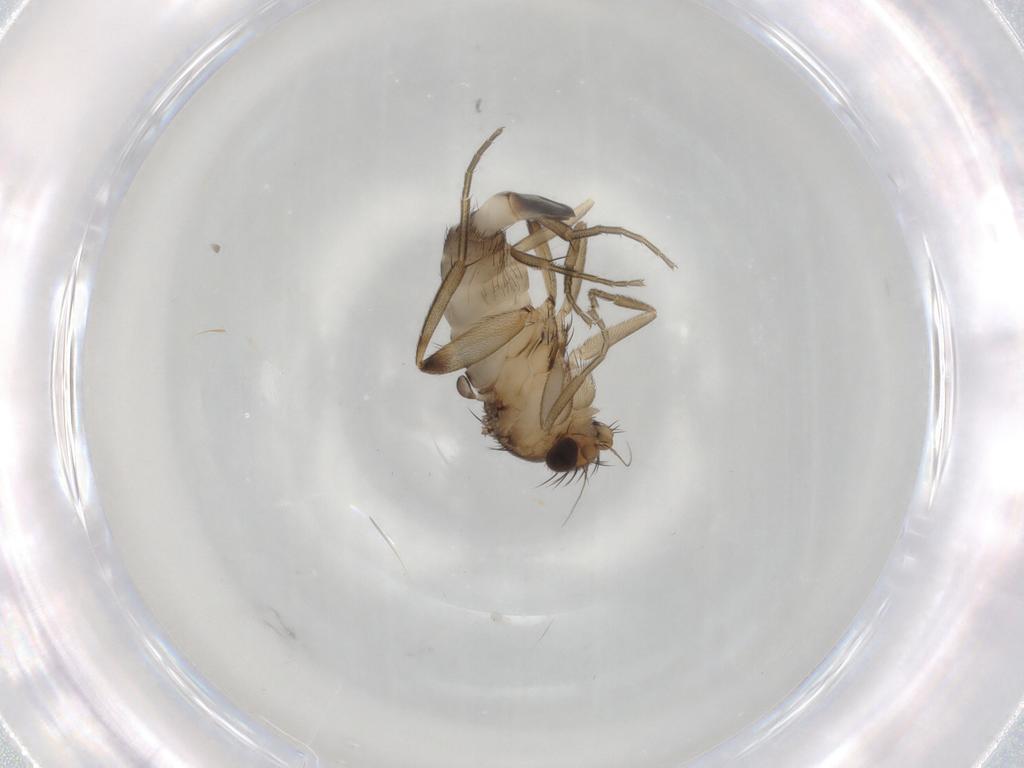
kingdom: Animalia
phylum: Arthropoda
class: Insecta
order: Diptera
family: Phoridae
